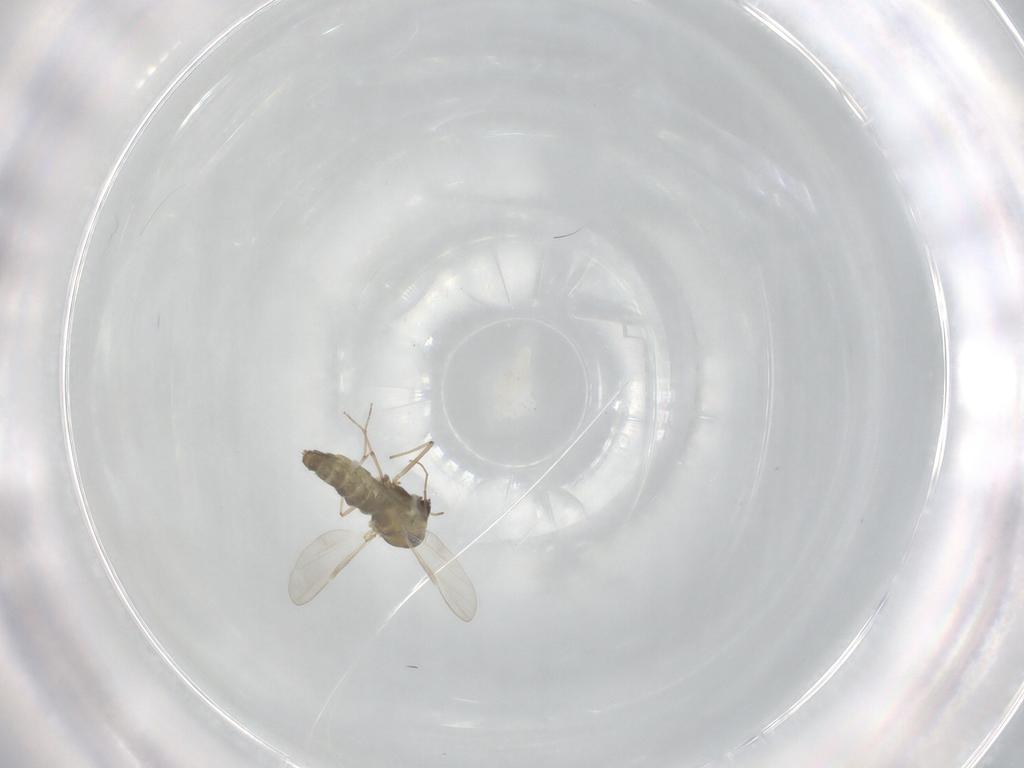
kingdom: Animalia
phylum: Arthropoda
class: Insecta
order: Diptera
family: Chironomidae
